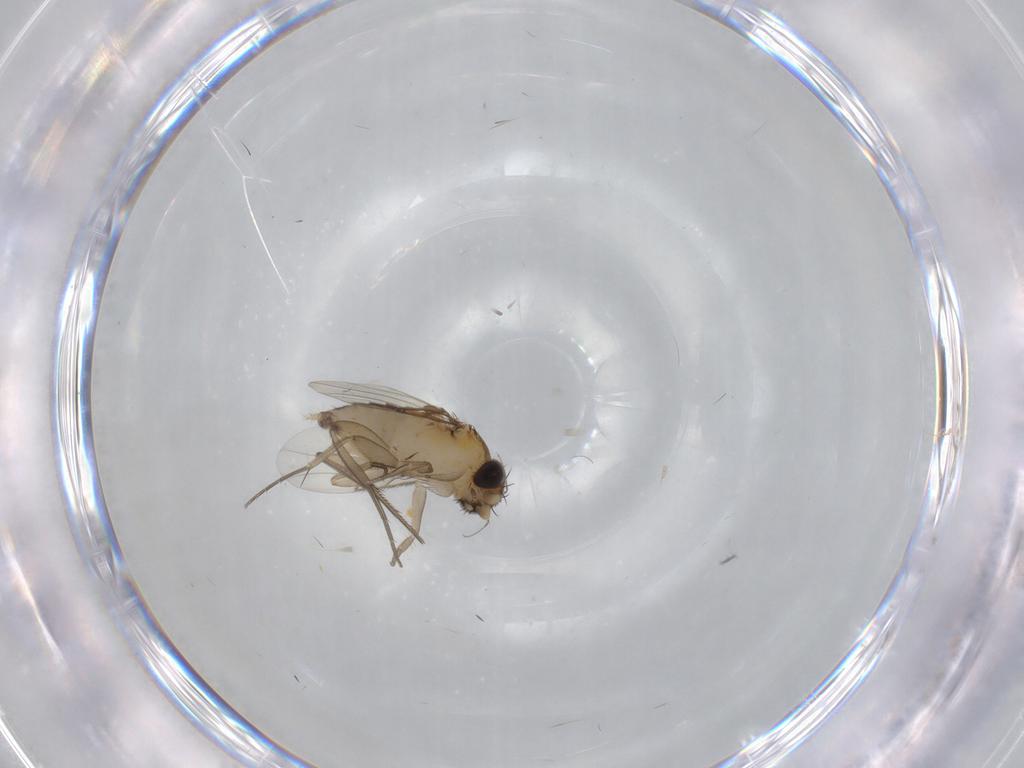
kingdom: Animalia
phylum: Arthropoda
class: Insecta
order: Diptera
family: Phoridae
